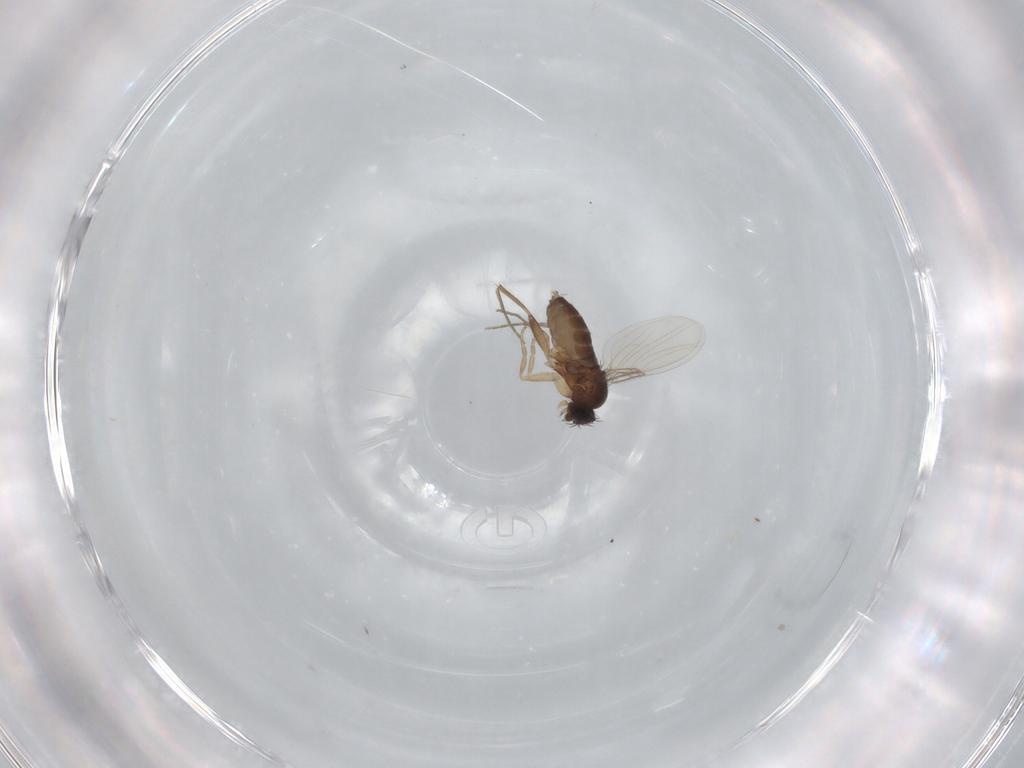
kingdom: Animalia
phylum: Arthropoda
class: Insecta
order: Diptera
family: Phoridae
